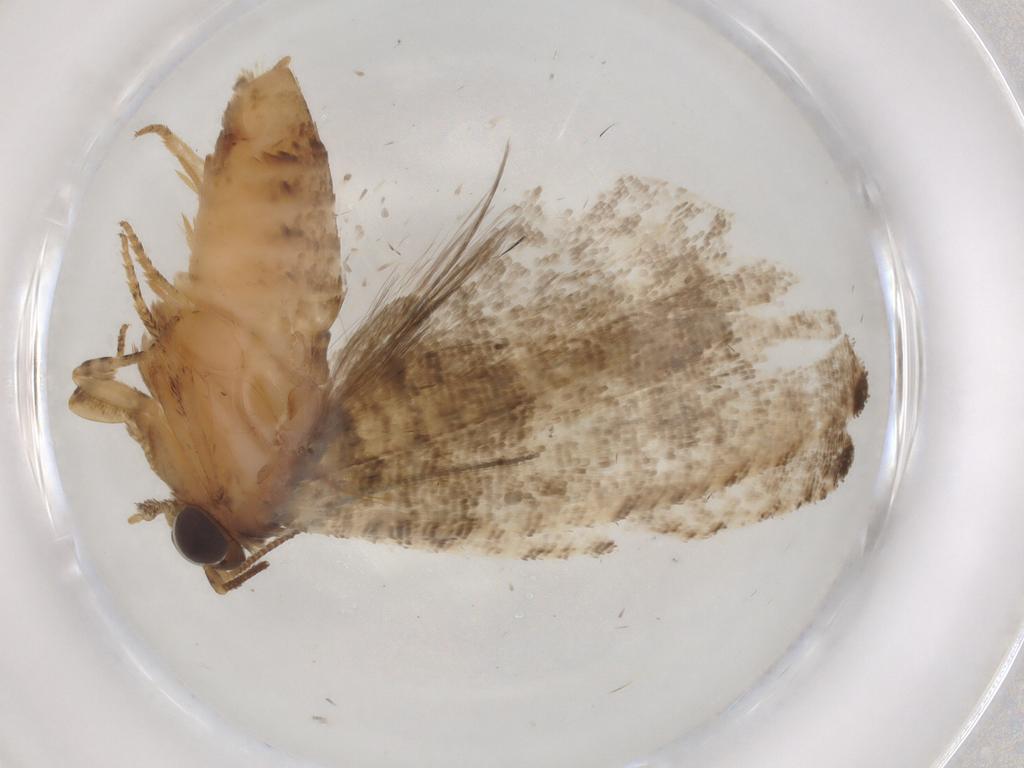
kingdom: Animalia
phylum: Arthropoda
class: Insecta
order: Lepidoptera
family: Tortricidae
